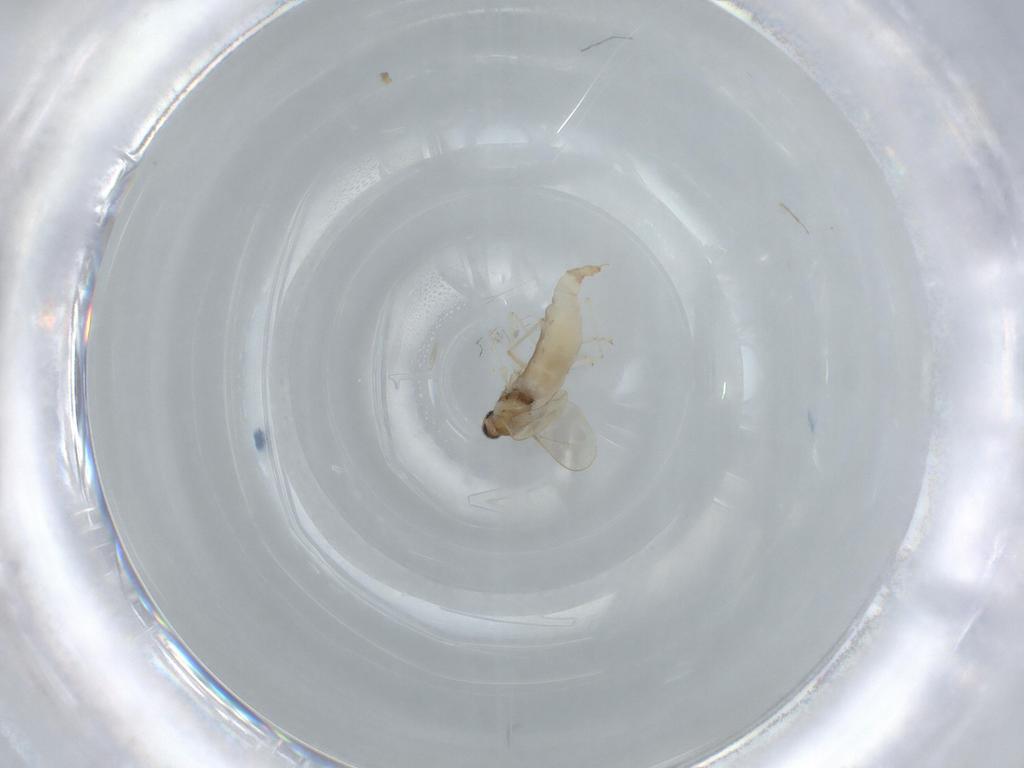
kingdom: Animalia
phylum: Arthropoda
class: Insecta
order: Diptera
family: Cecidomyiidae
